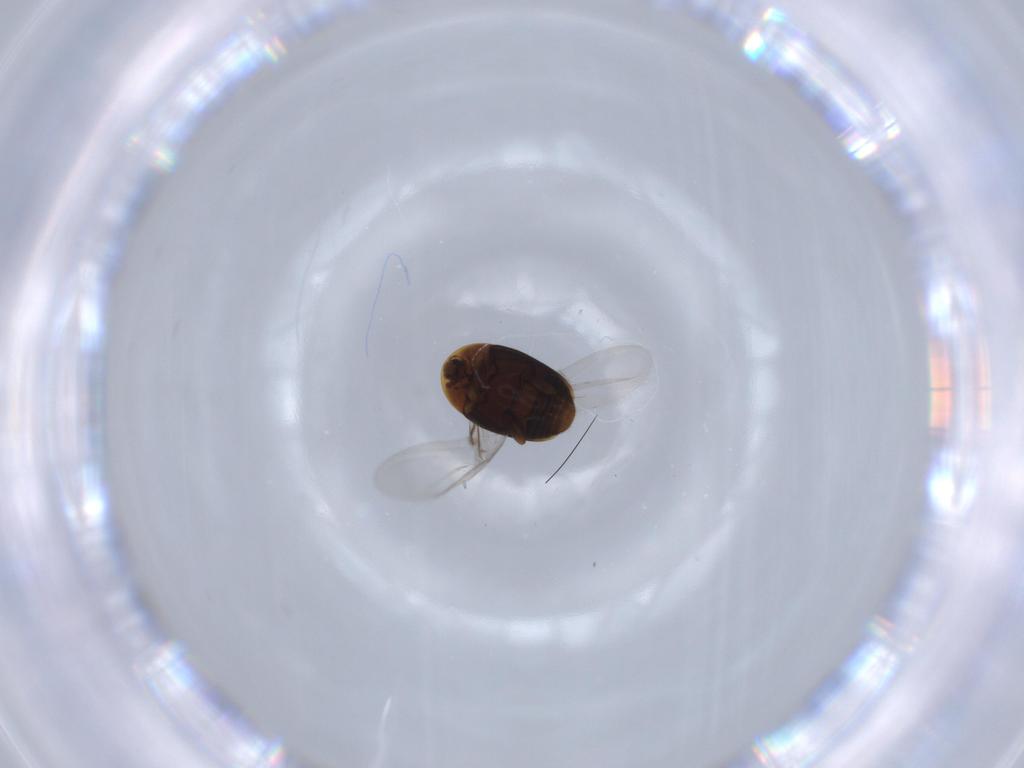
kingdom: Animalia
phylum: Arthropoda
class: Insecta
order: Coleoptera
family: Corylophidae
